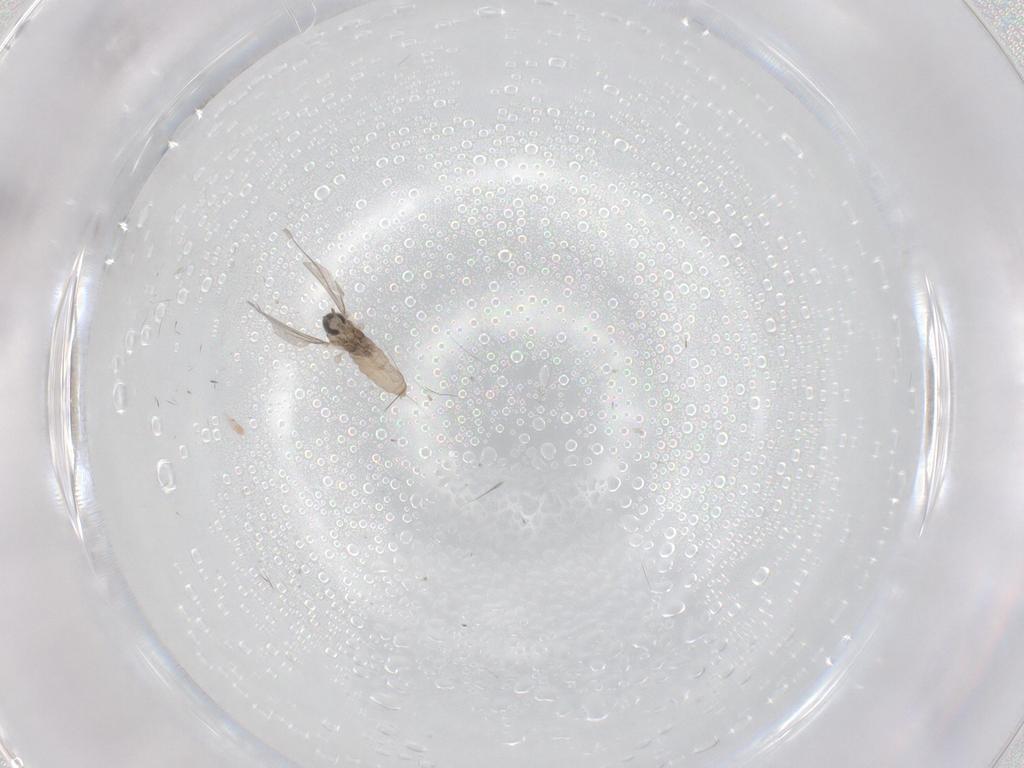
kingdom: Animalia
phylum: Arthropoda
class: Insecta
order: Diptera
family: Cecidomyiidae
